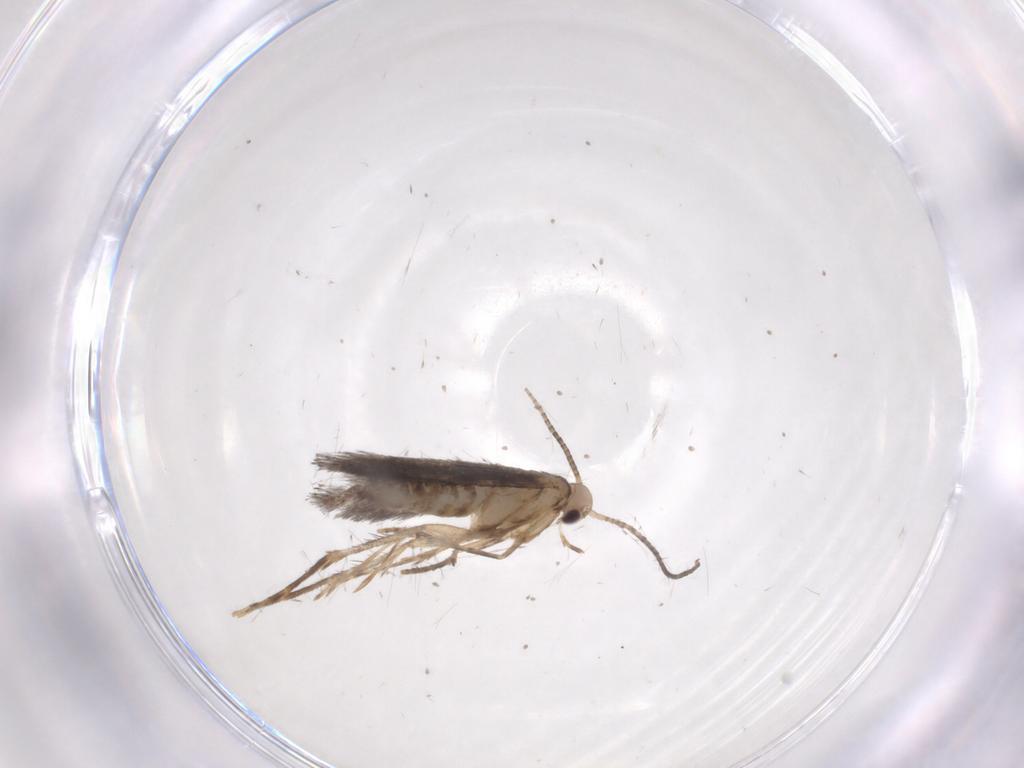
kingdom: Animalia
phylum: Arthropoda
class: Insecta
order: Lepidoptera
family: Gracillariidae
